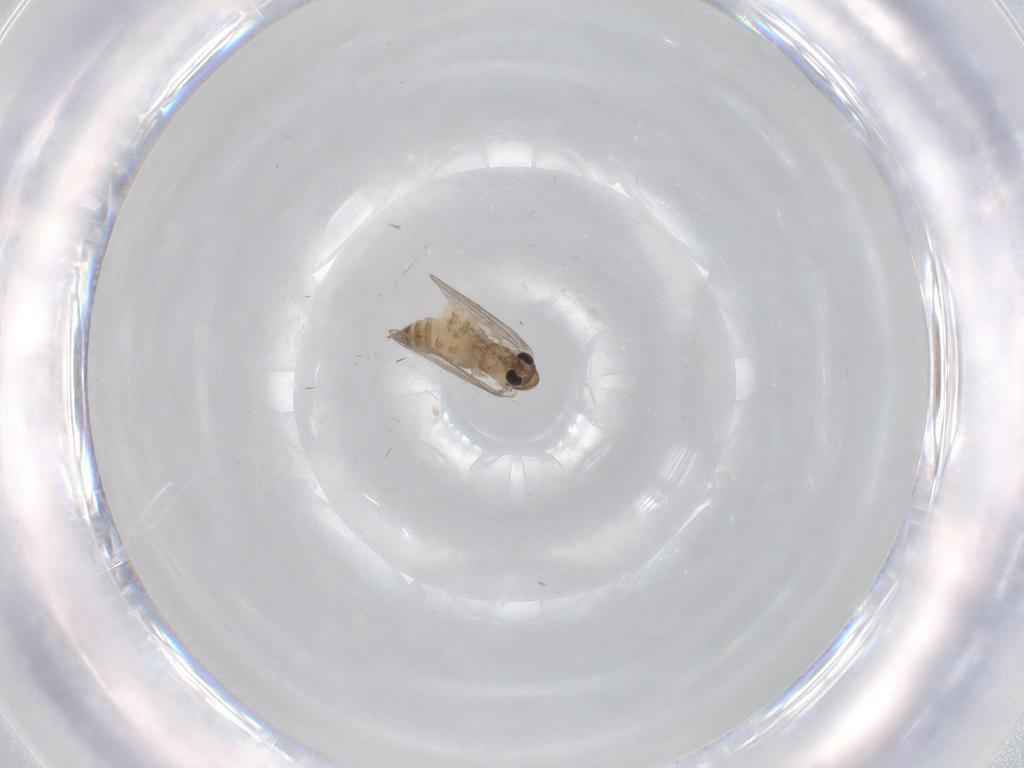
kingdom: Animalia
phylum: Arthropoda
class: Insecta
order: Diptera
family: Psychodidae
